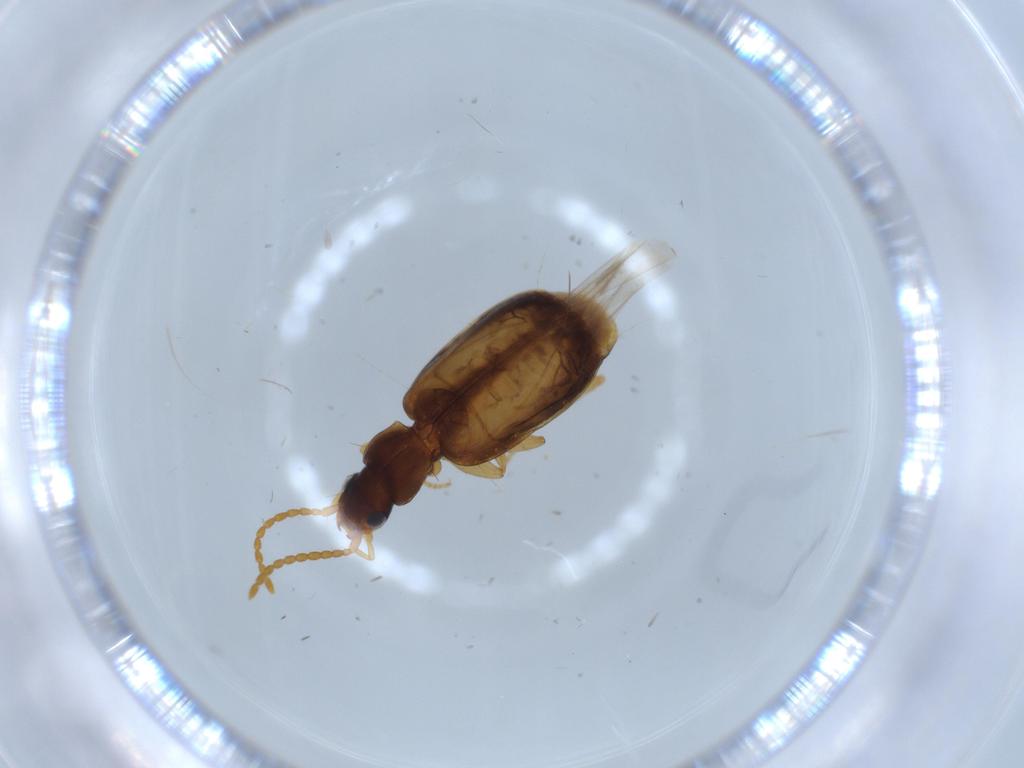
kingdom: Animalia
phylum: Arthropoda
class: Insecta
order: Coleoptera
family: Carabidae
